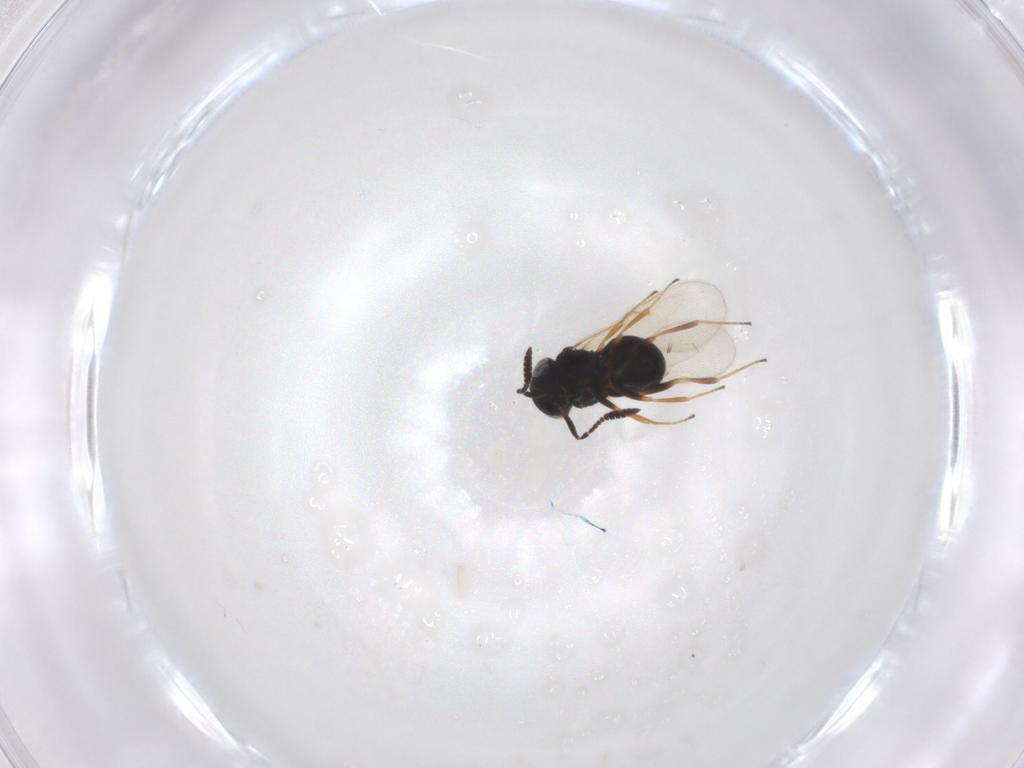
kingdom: Animalia
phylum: Arthropoda
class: Insecta
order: Hymenoptera
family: Scelionidae
